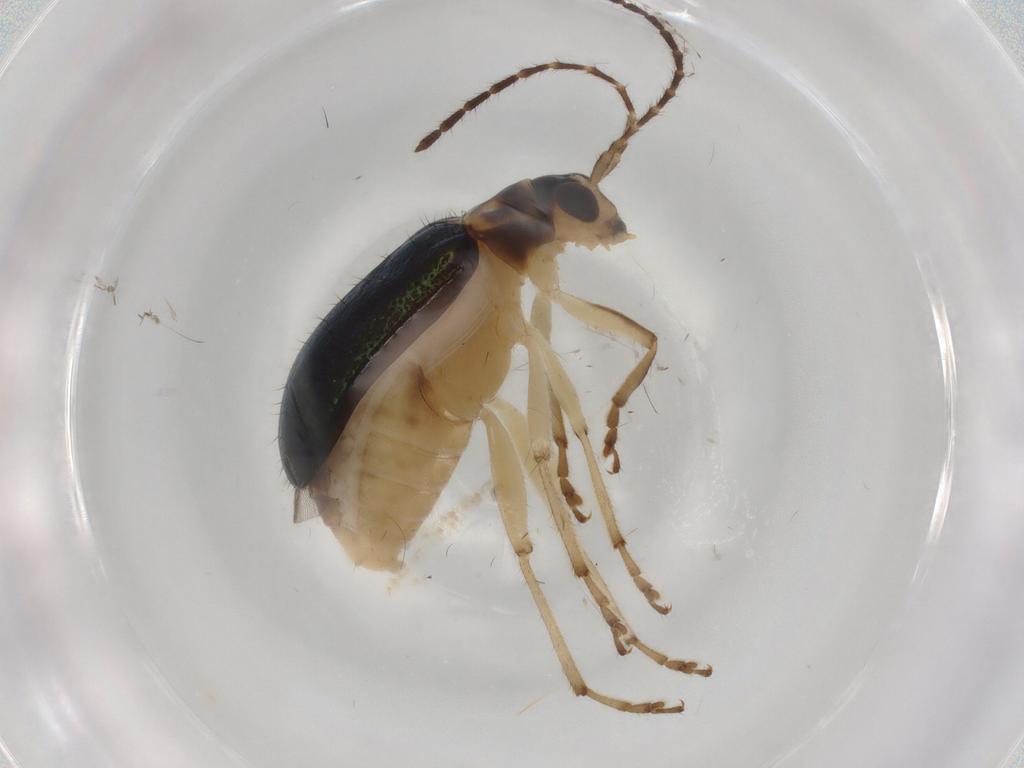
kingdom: Animalia
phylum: Arthropoda
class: Insecta
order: Coleoptera
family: Chrysomelidae
